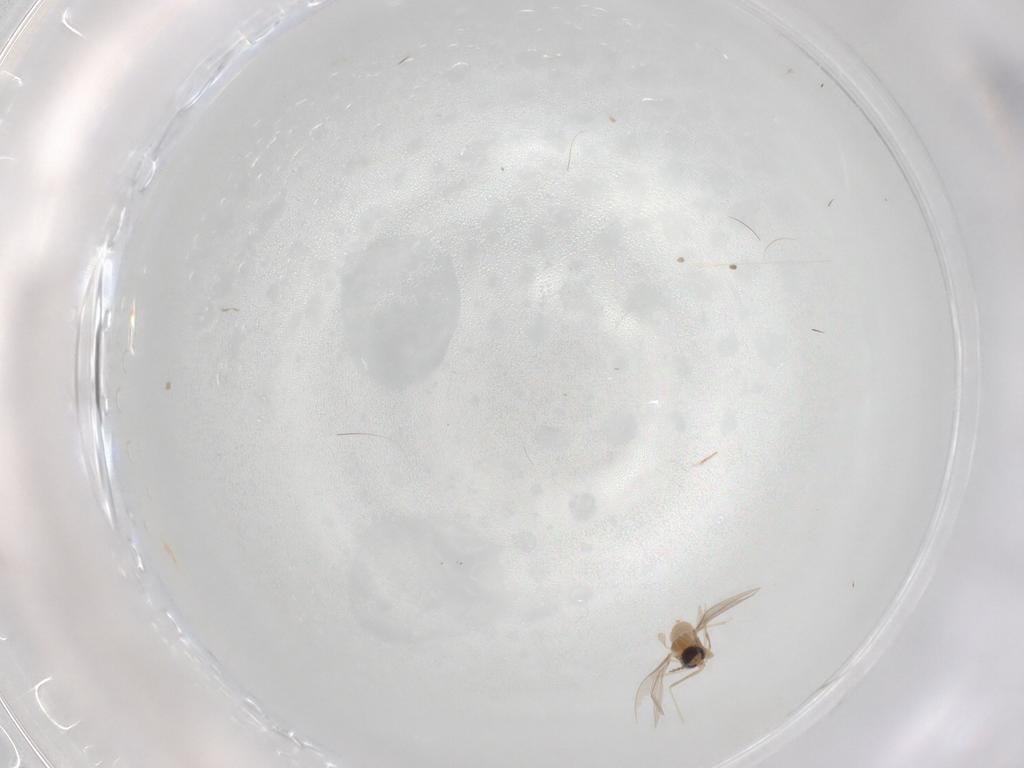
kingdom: Animalia
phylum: Arthropoda
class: Insecta
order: Diptera
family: Cecidomyiidae
